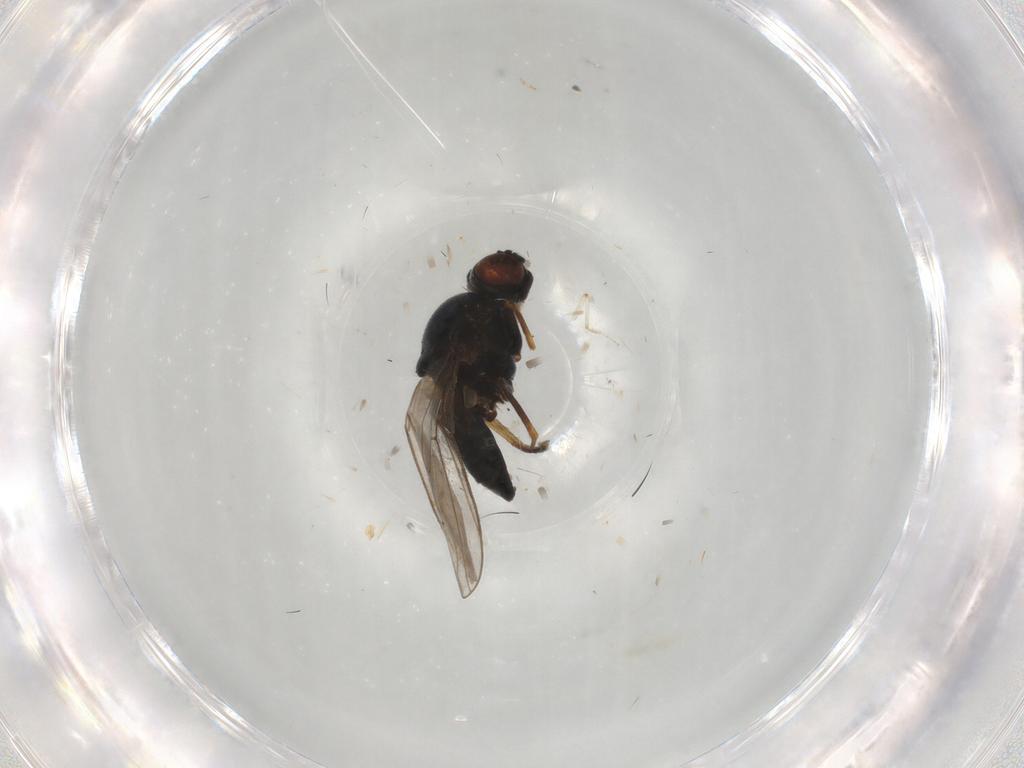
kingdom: Animalia
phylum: Arthropoda
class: Insecta
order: Diptera
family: Chloropidae
